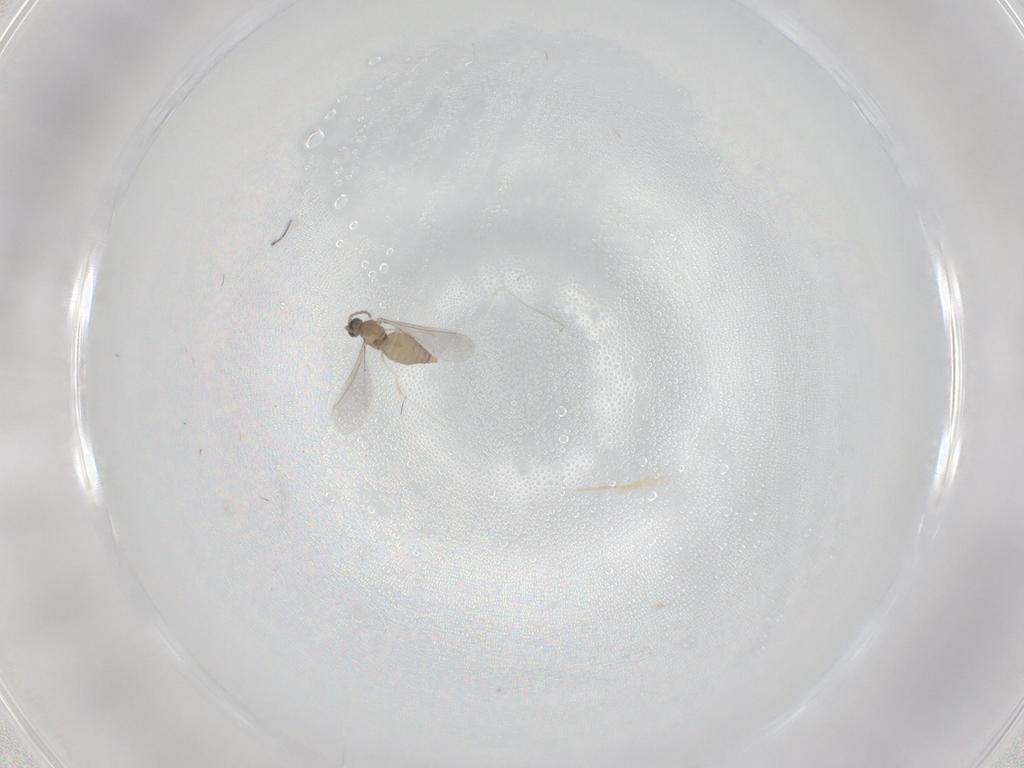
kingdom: Animalia
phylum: Arthropoda
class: Insecta
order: Diptera
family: Cecidomyiidae
